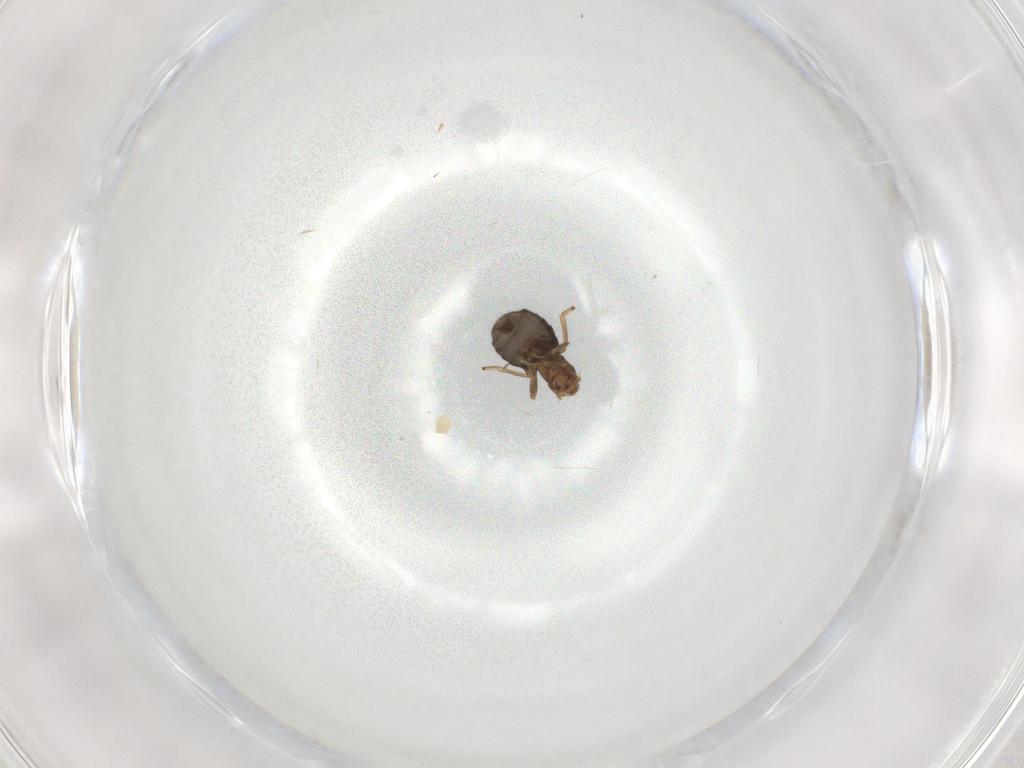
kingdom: Animalia
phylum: Arthropoda
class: Insecta
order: Diptera
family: Phoridae
